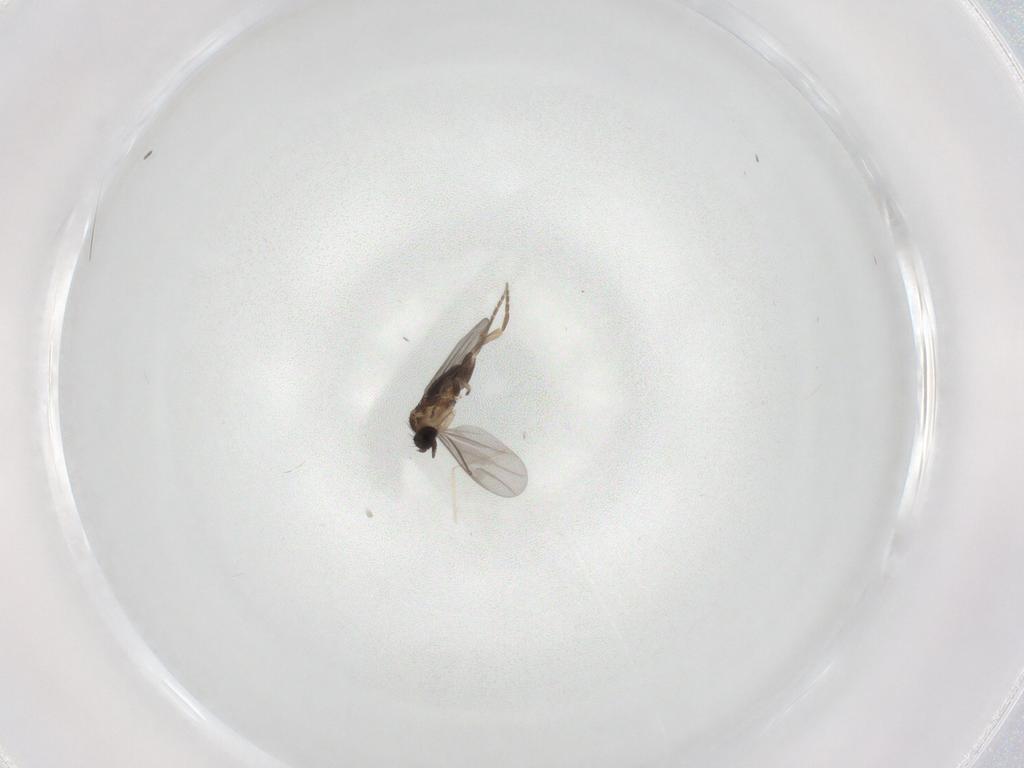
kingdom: Animalia
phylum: Arthropoda
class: Insecta
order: Diptera
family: Cecidomyiidae
